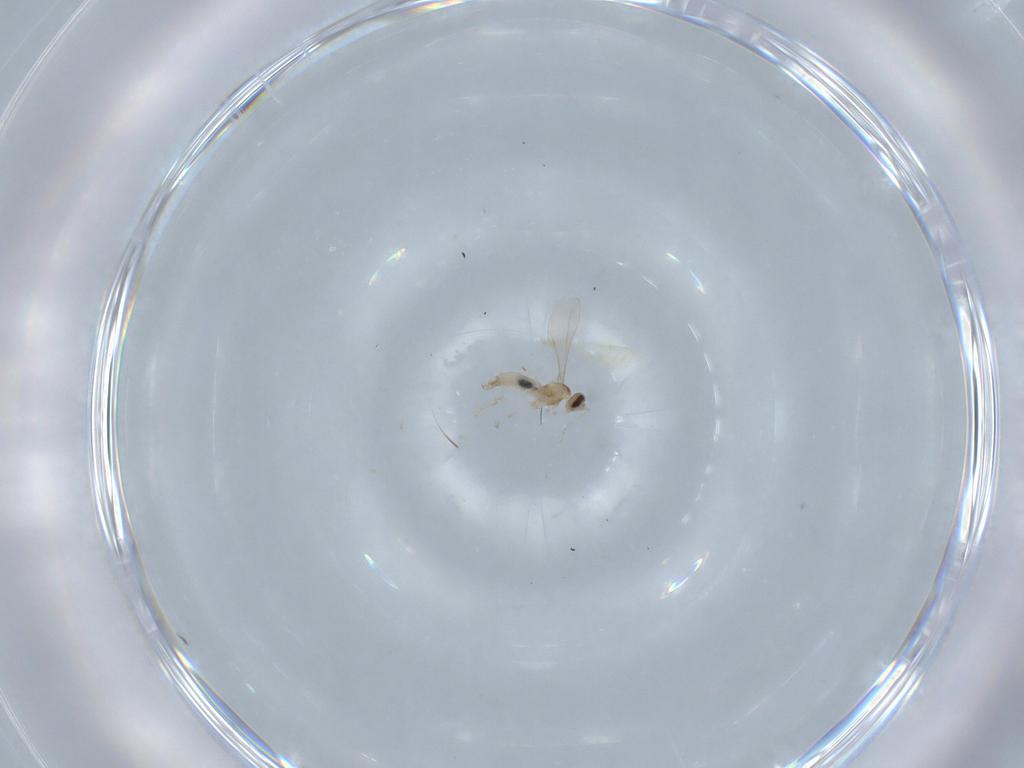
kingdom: Animalia
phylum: Arthropoda
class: Insecta
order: Diptera
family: Cecidomyiidae
